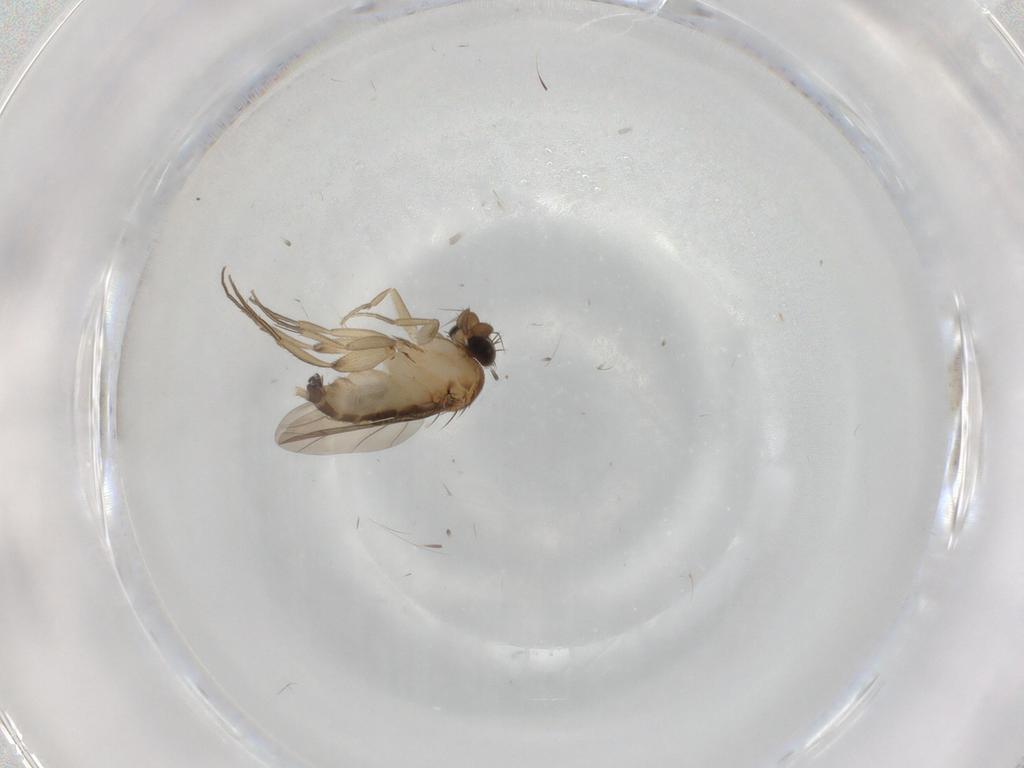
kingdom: Animalia
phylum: Arthropoda
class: Insecta
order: Diptera
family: Phoridae
